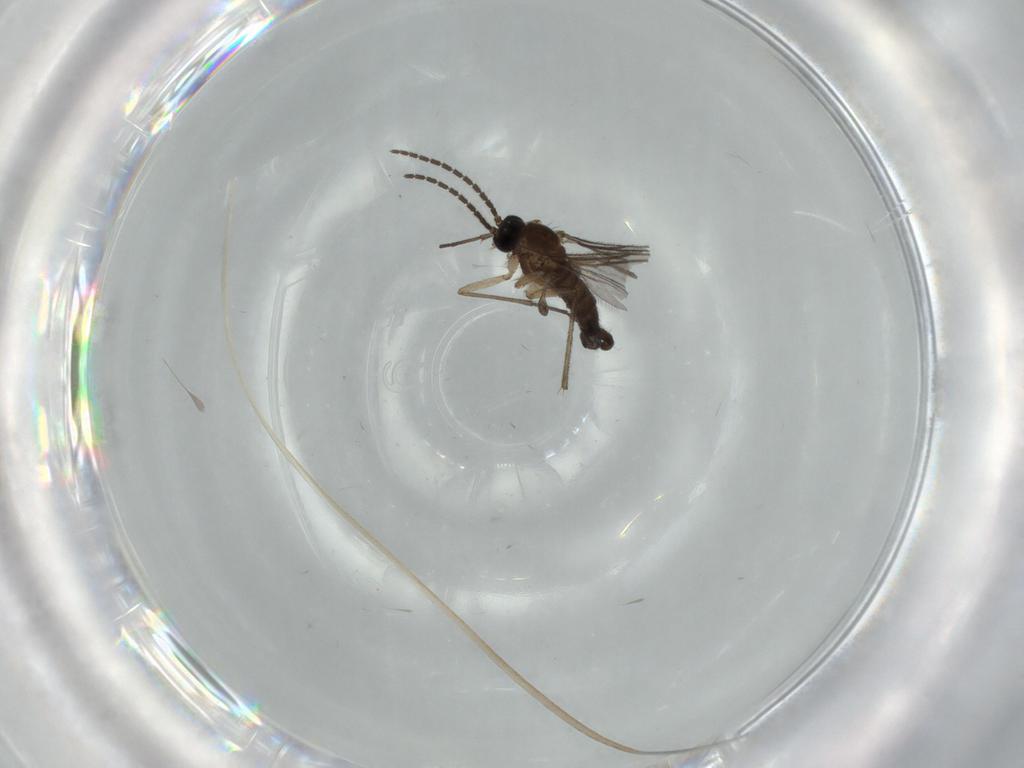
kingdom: Animalia
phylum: Arthropoda
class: Insecta
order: Diptera
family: Sciaridae
